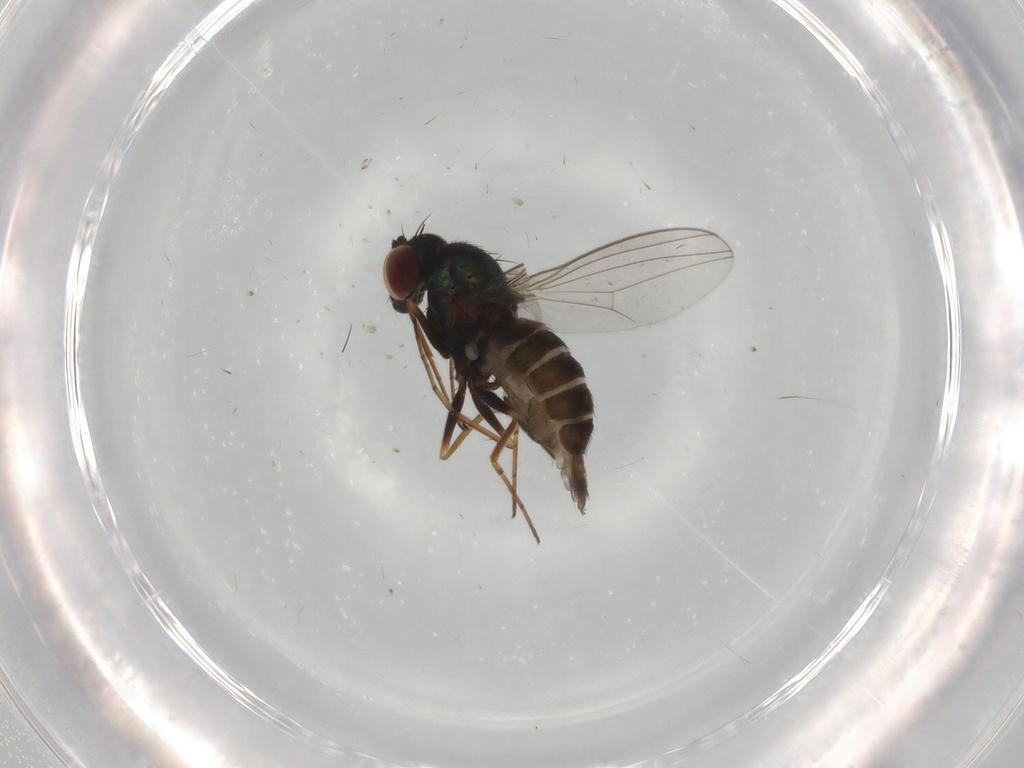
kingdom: Animalia
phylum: Arthropoda
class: Insecta
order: Diptera
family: Dolichopodidae
